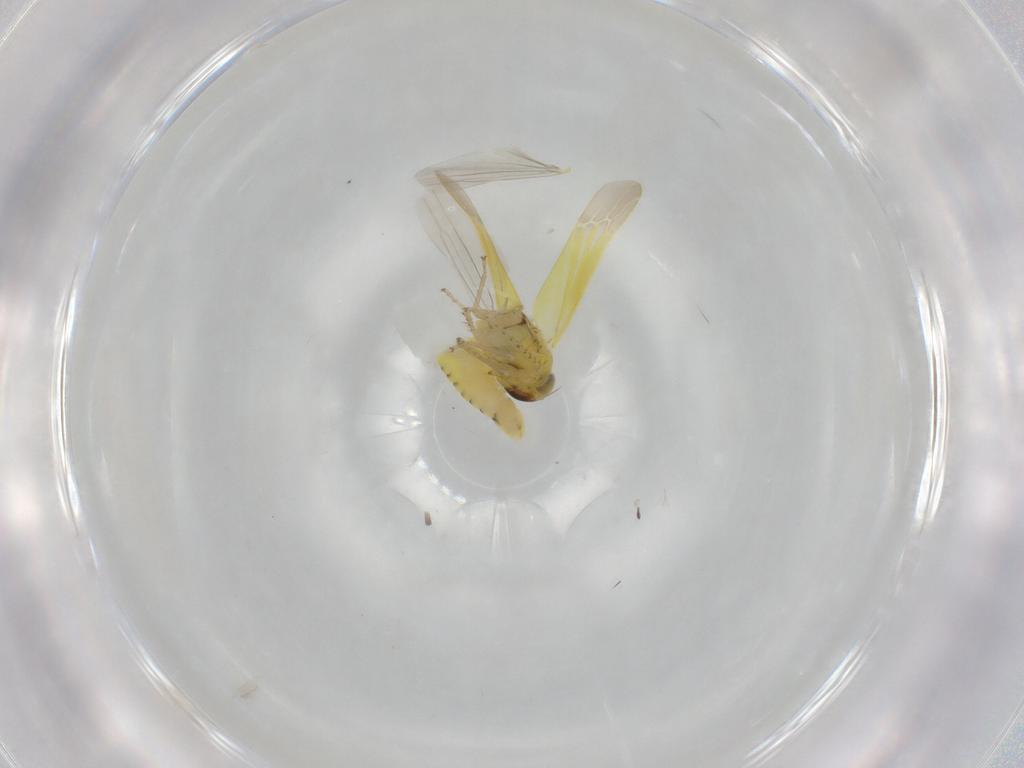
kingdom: Animalia
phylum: Arthropoda
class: Insecta
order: Hemiptera
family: Cicadellidae
